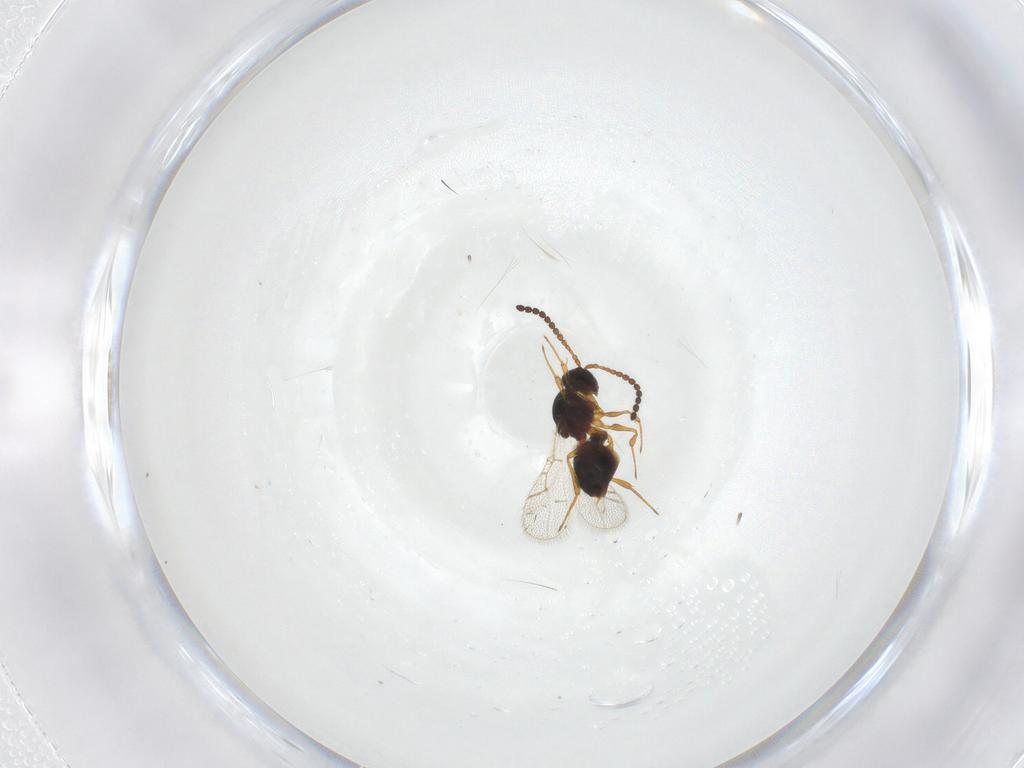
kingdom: Animalia
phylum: Arthropoda
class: Insecta
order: Hymenoptera
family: Figitidae
